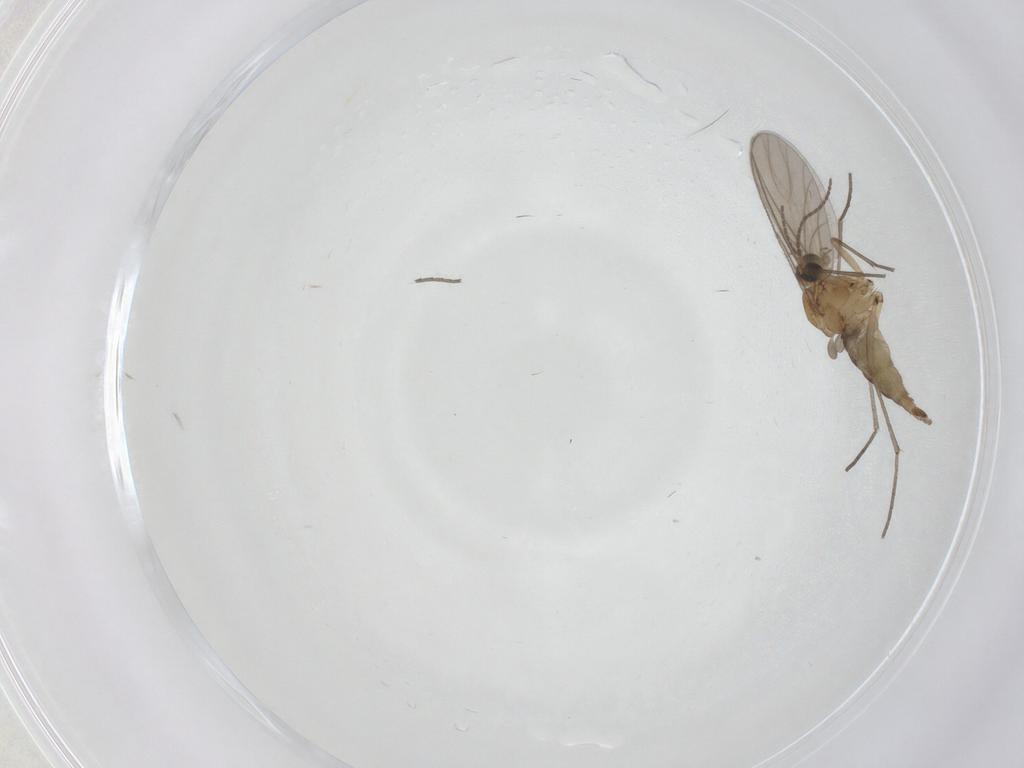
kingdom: Animalia
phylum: Arthropoda
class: Insecta
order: Diptera
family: Sciaridae
